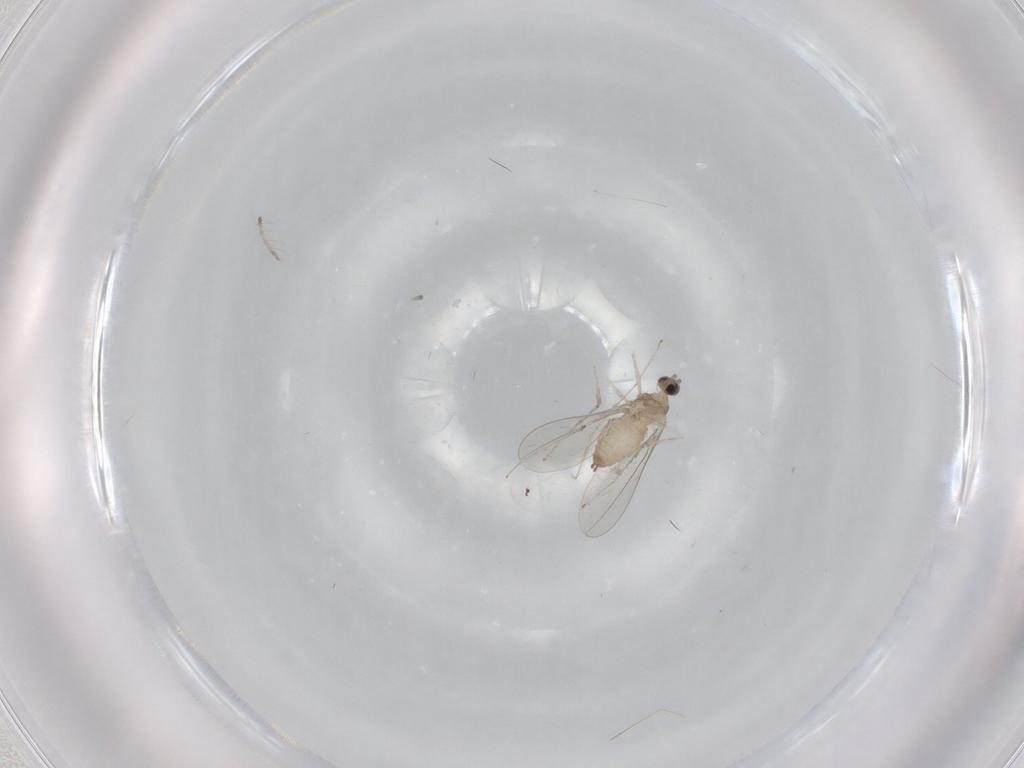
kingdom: Animalia
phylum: Arthropoda
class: Insecta
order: Diptera
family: Cecidomyiidae
